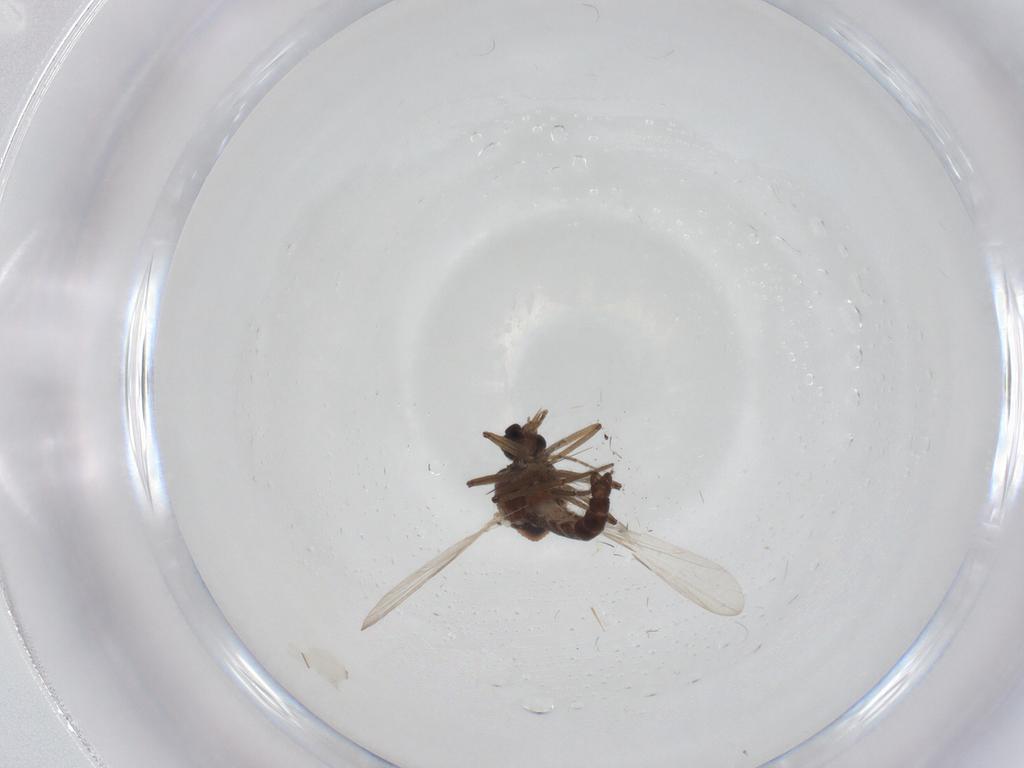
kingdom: Animalia
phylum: Arthropoda
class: Insecta
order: Diptera
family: Ceratopogonidae
